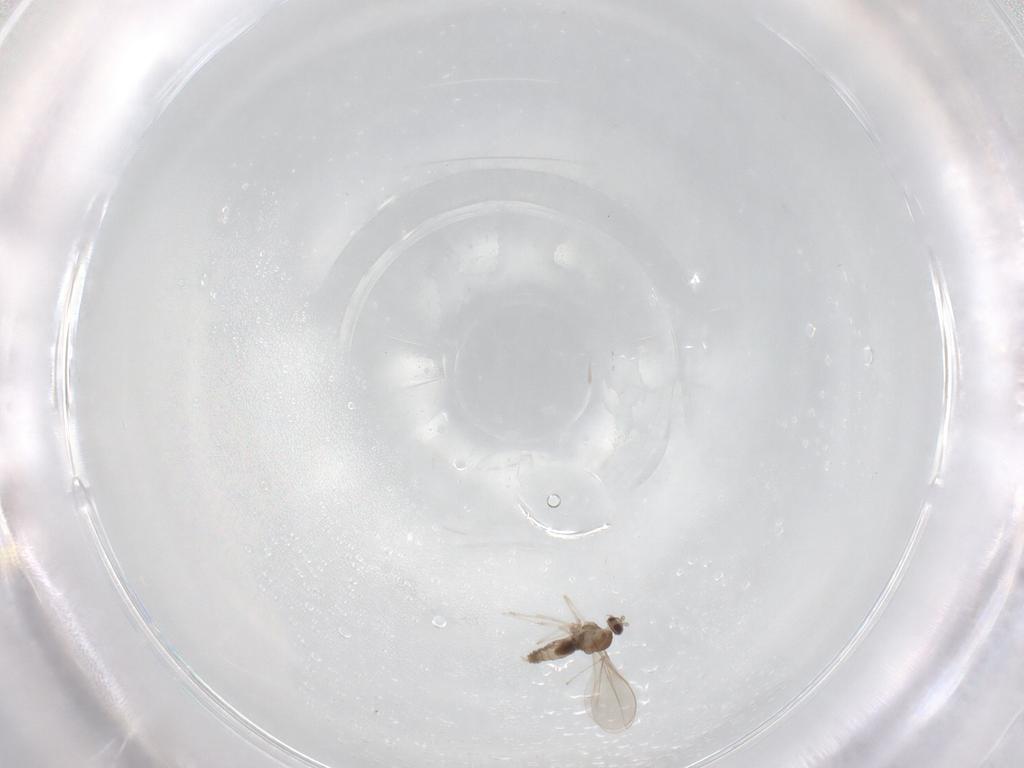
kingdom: Animalia
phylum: Arthropoda
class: Insecta
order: Diptera
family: Cecidomyiidae
